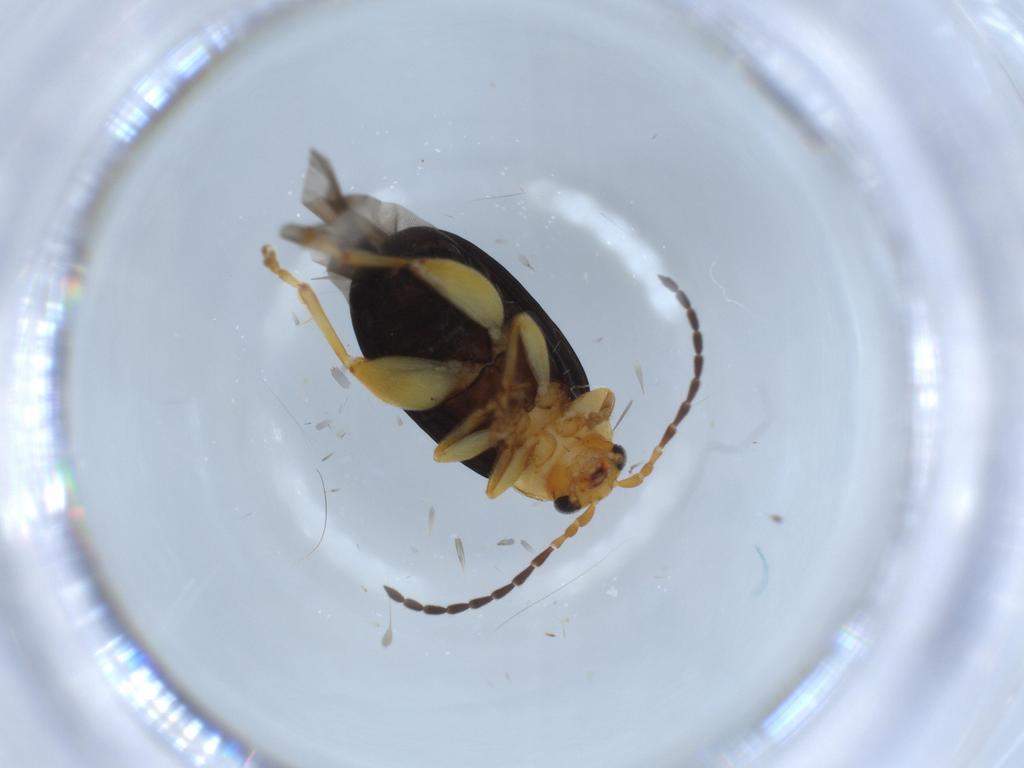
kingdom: Animalia
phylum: Arthropoda
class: Insecta
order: Coleoptera
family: Chrysomelidae
